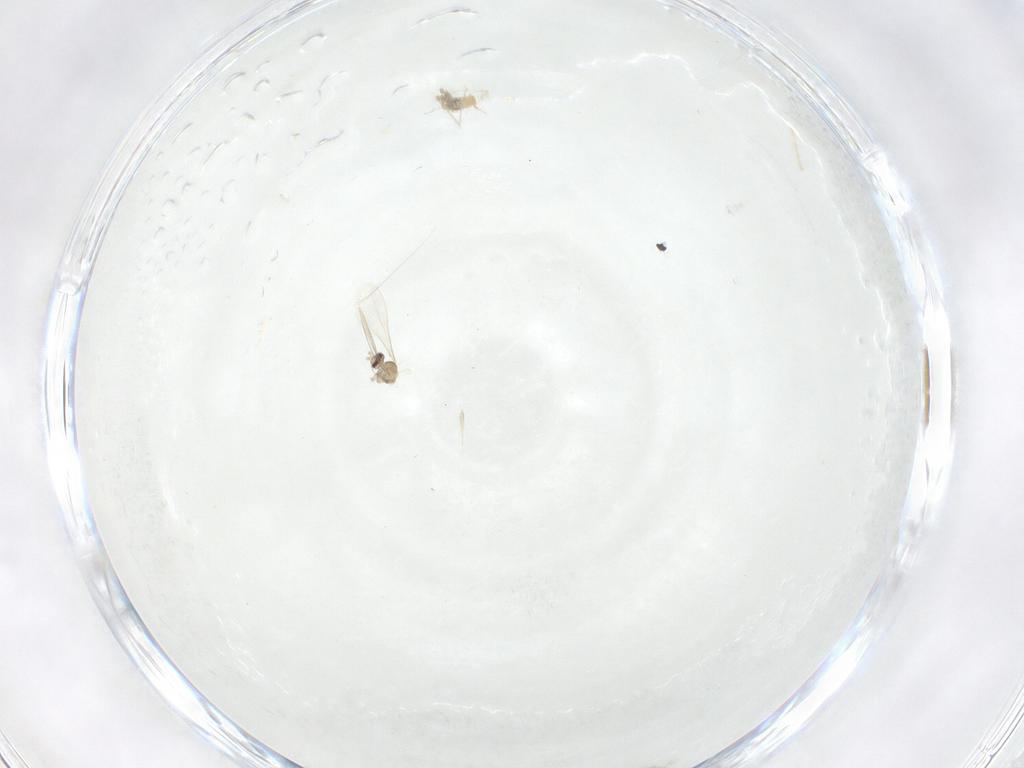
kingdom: Animalia
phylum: Arthropoda
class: Insecta
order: Diptera
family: Cecidomyiidae
